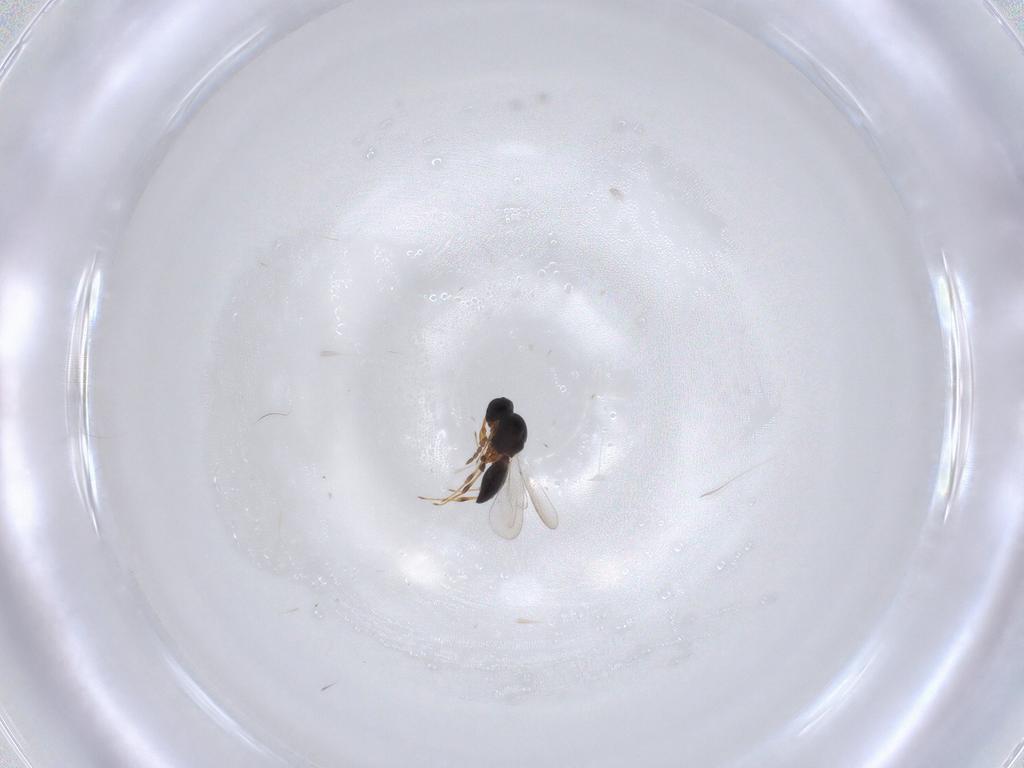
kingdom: Animalia
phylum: Arthropoda
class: Insecta
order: Hymenoptera
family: Platygastridae
